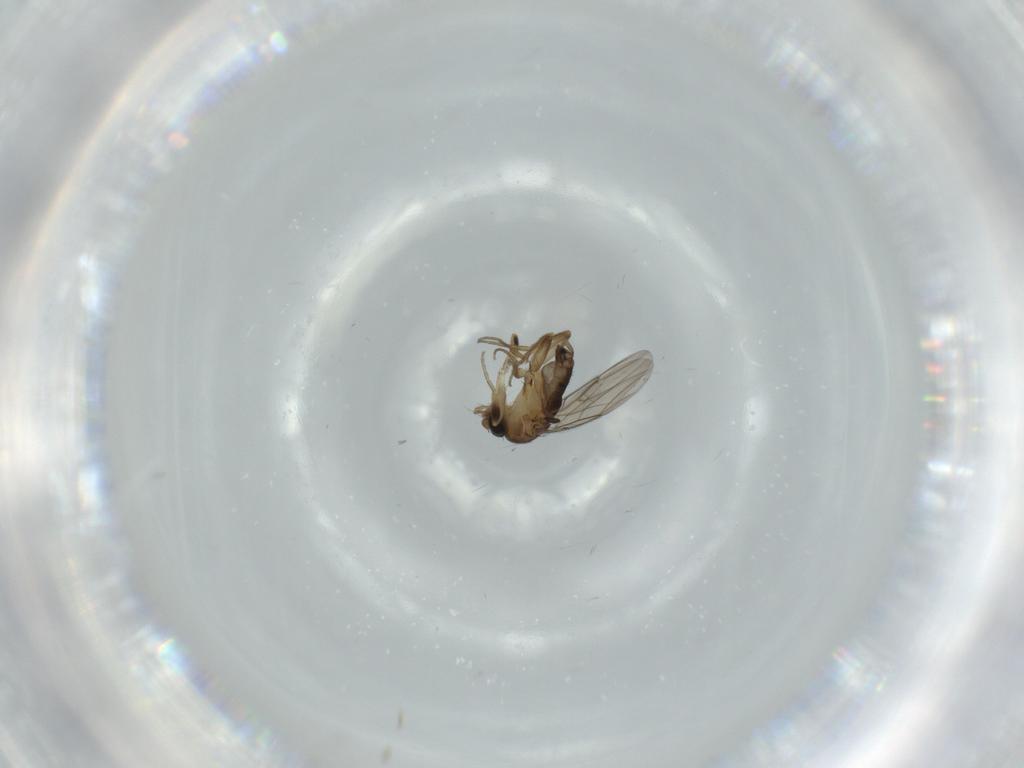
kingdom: Animalia
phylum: Arthropoda
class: Insecta
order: Diptera
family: Phoridae
